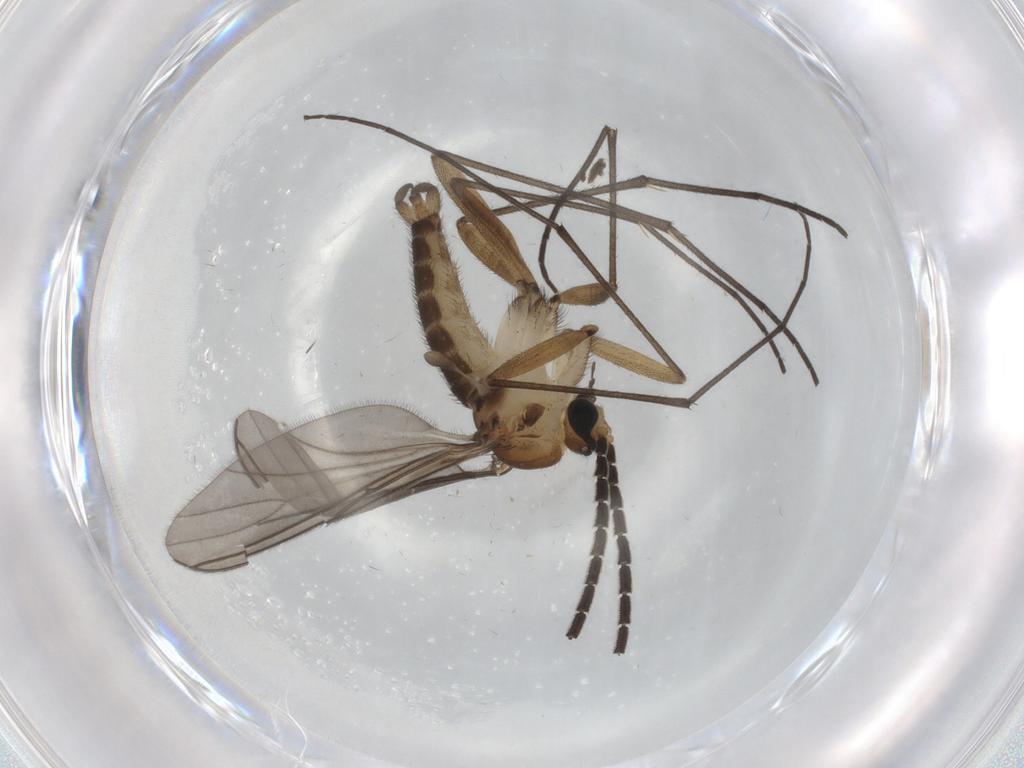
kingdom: Animalia
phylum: Arthropoda
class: Insecta
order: Diptera
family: Sciaridae
